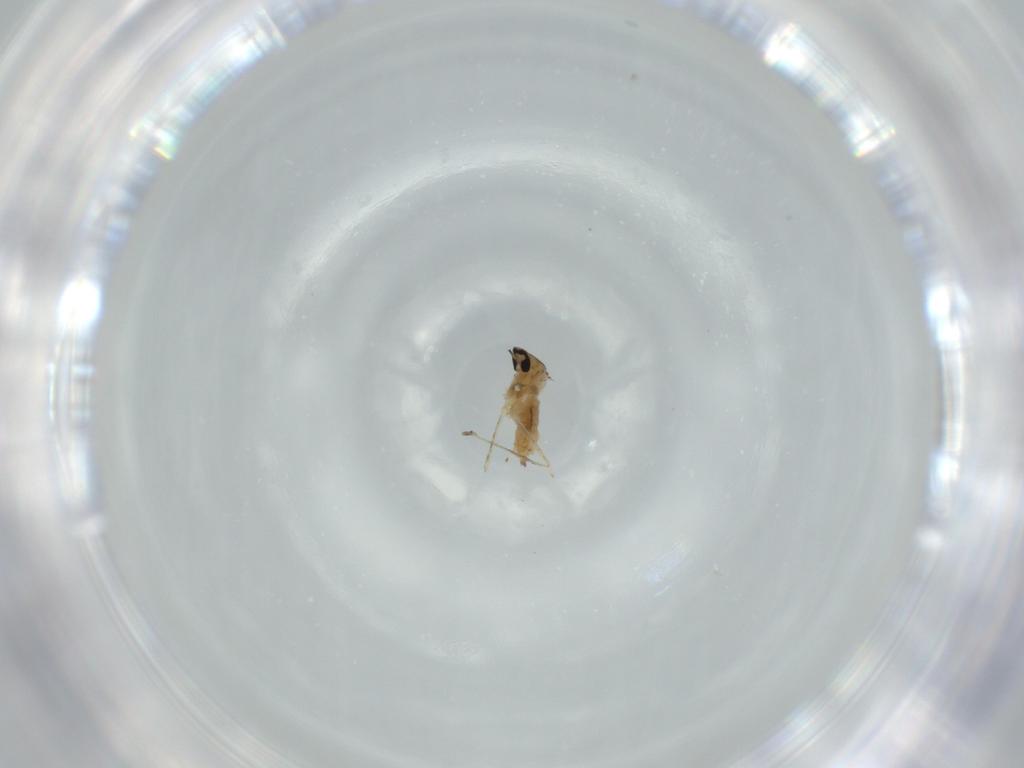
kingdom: Animalia
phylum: Arthropoda
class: Insecta
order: Diptera
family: Cecidomyiidae
